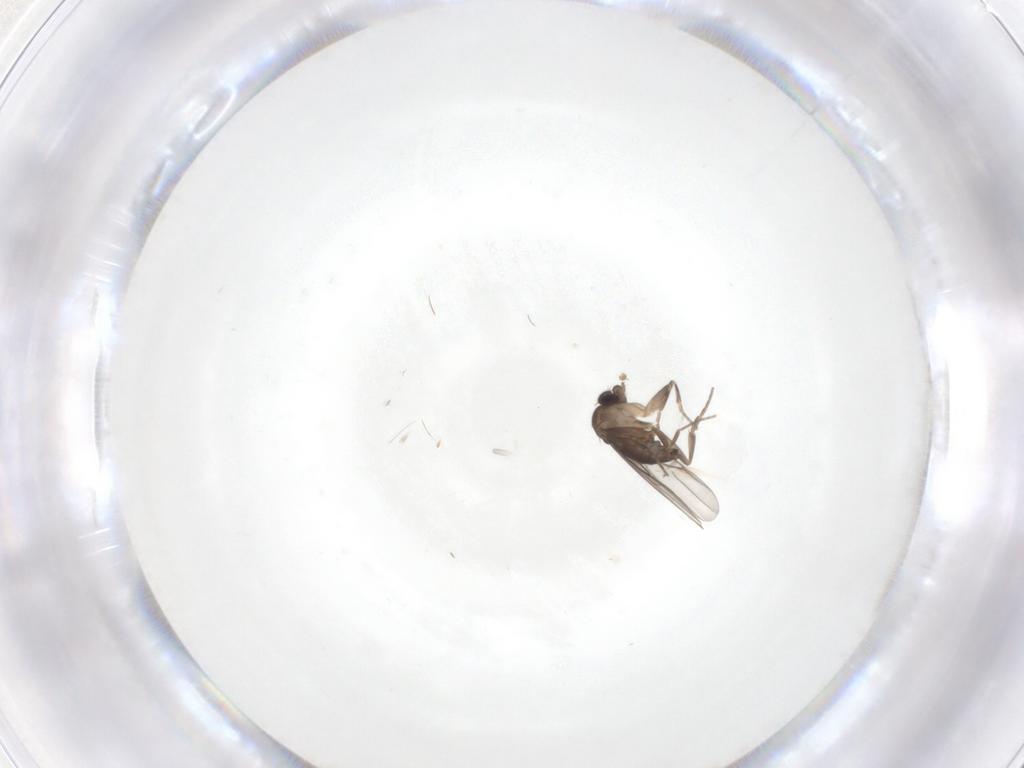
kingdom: Animalia
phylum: Arthropoda
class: Insecta
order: Diptera
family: Phoridae
